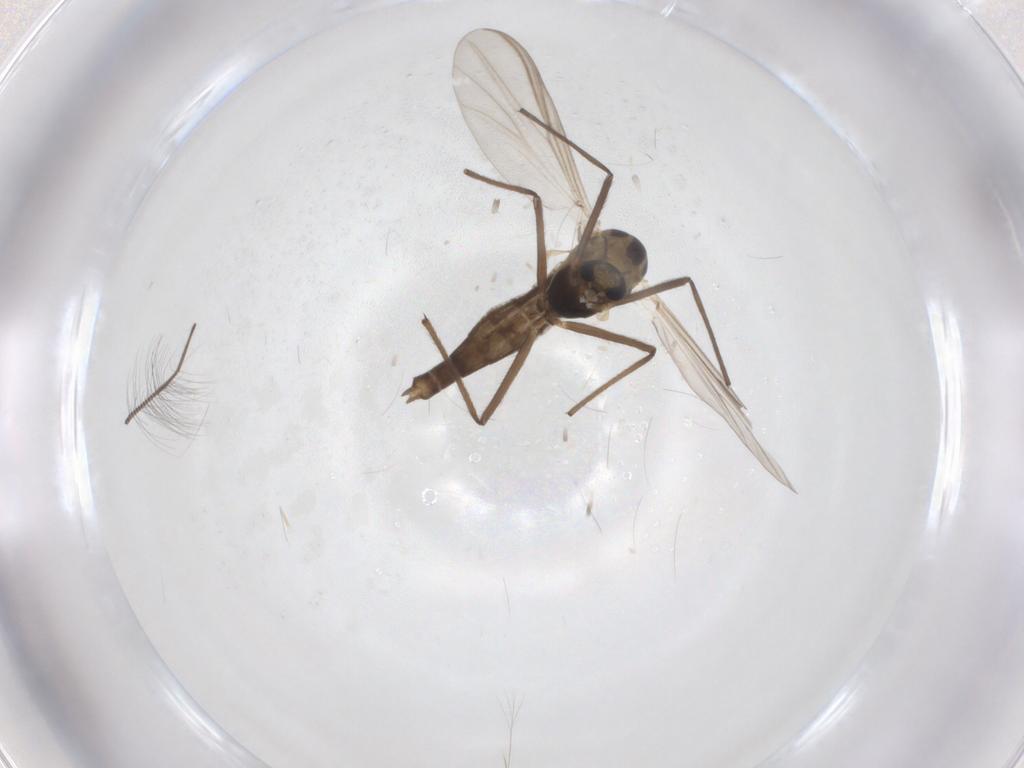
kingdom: Animalia
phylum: Arthropoda
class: Insecta
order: Diptera
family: Chironomidae
